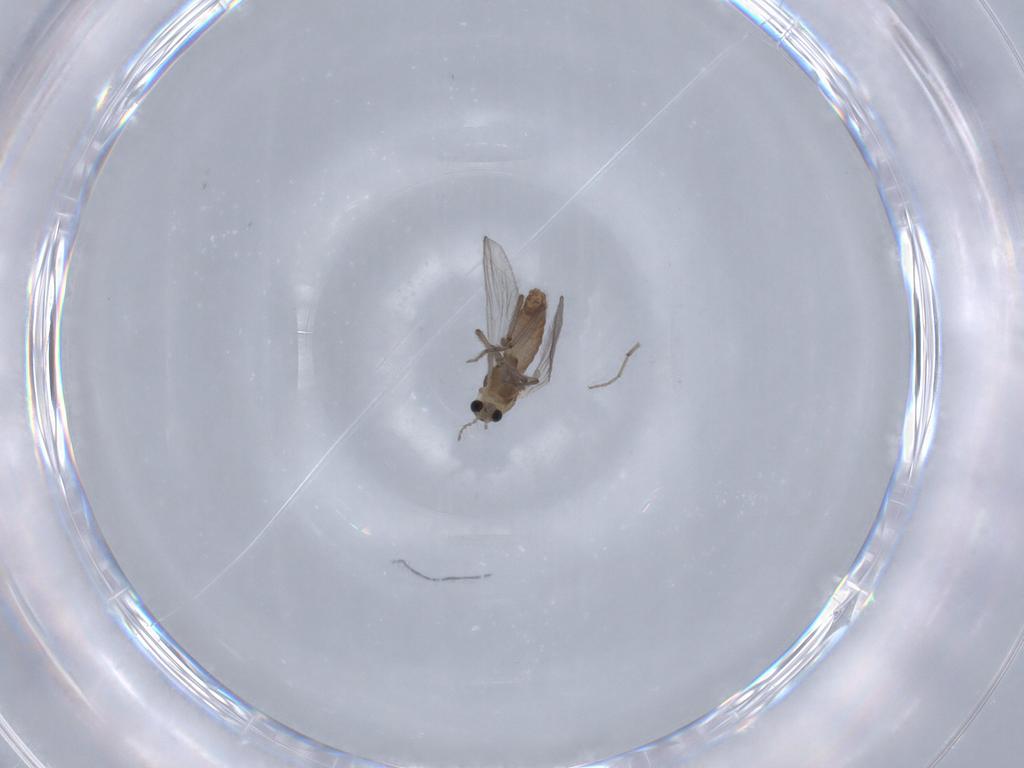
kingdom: Animalia
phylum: Arthropoda
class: Insecta
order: Diptera
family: Chironomidae
